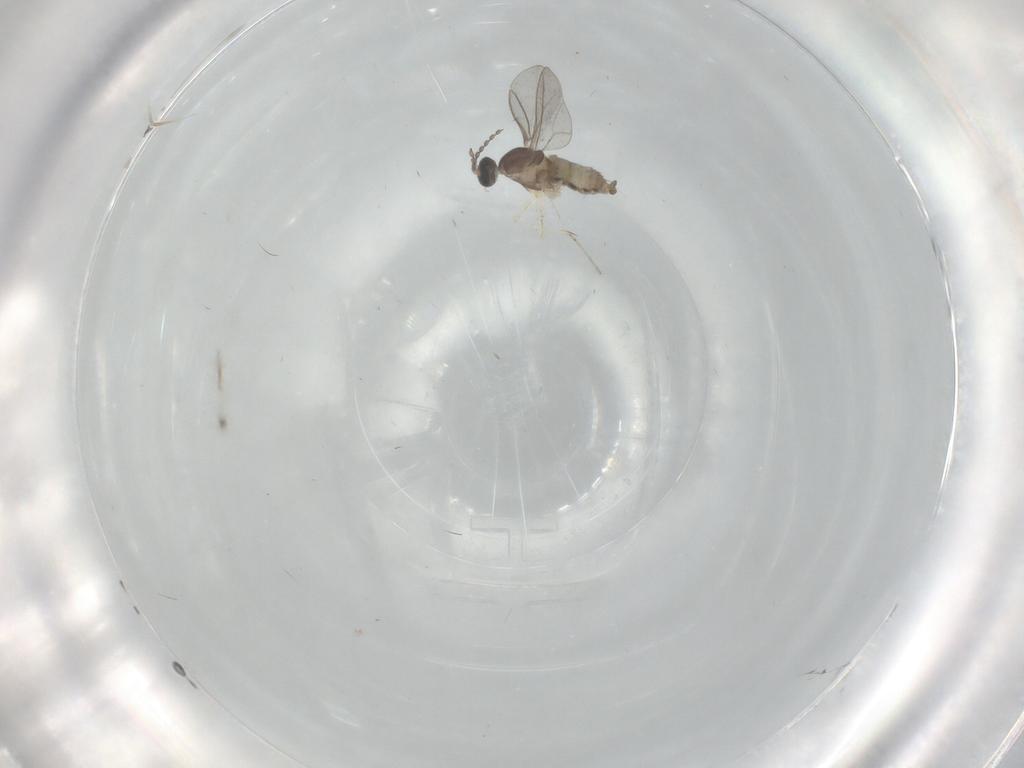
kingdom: Animalia
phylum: Arthropoda
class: Insecta
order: Diptera
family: Cecidomyiidae
